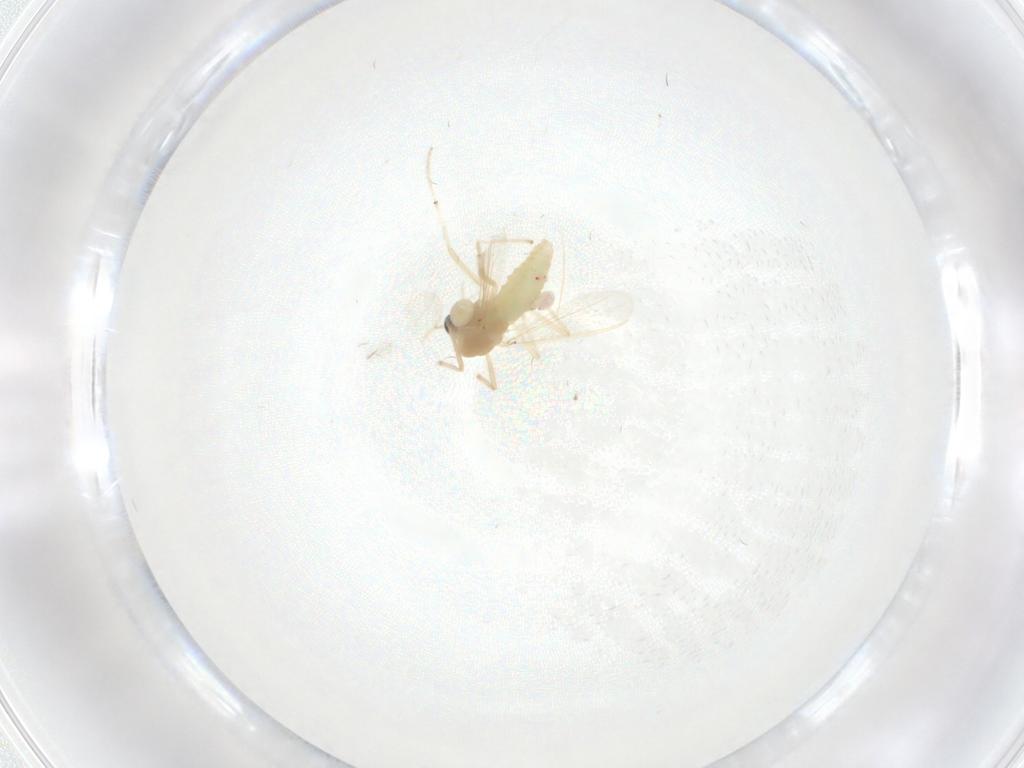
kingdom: Animalia
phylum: Arthropoda
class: Insecta
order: Diptera
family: Chironomidae
